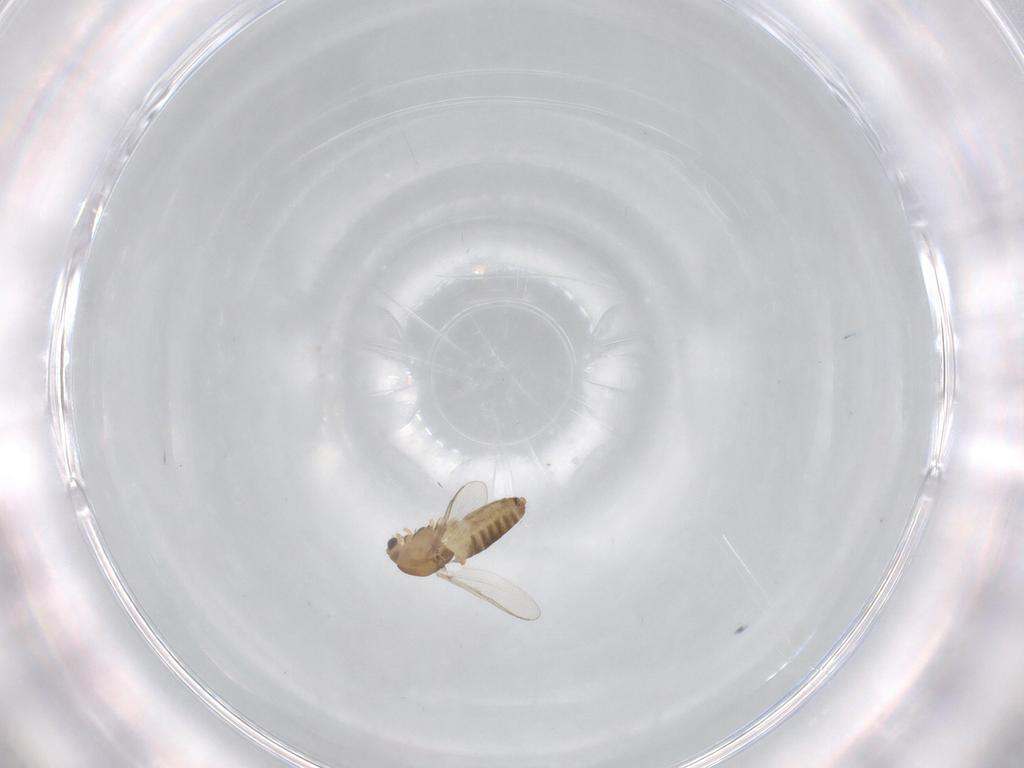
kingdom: Animalia
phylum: Arthropoda
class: Insecta
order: Diptera
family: Chironomidae
